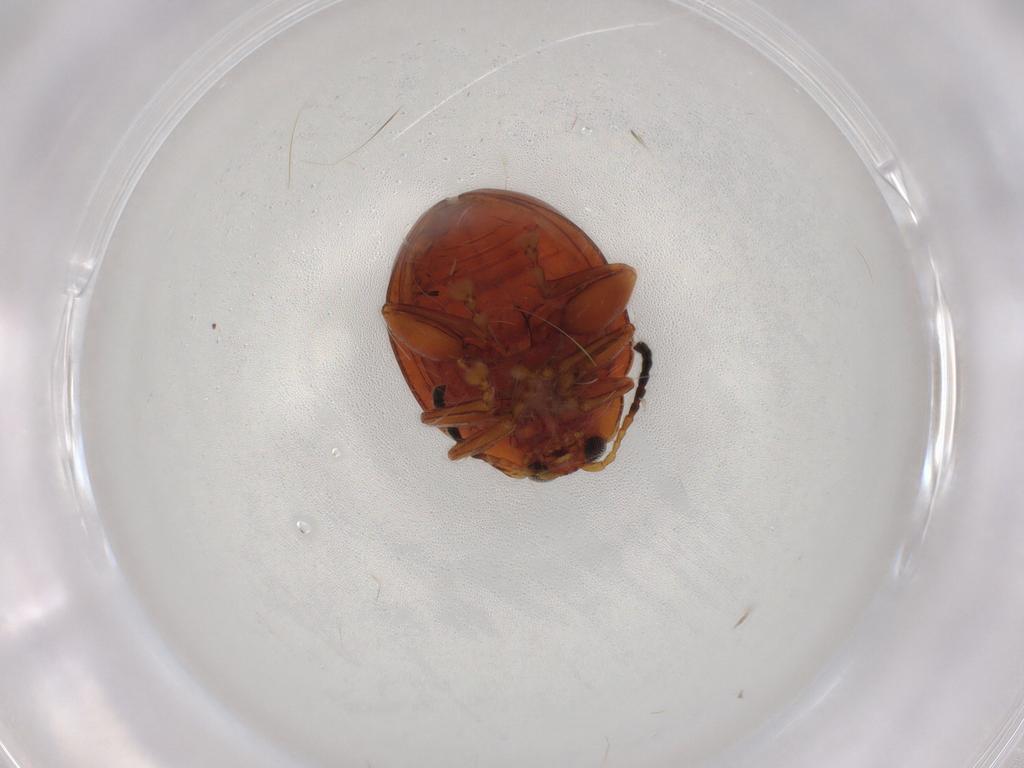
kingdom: Animalia
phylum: Arthropoda
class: Insecta
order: Coleoptera
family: Chrysomelidae
